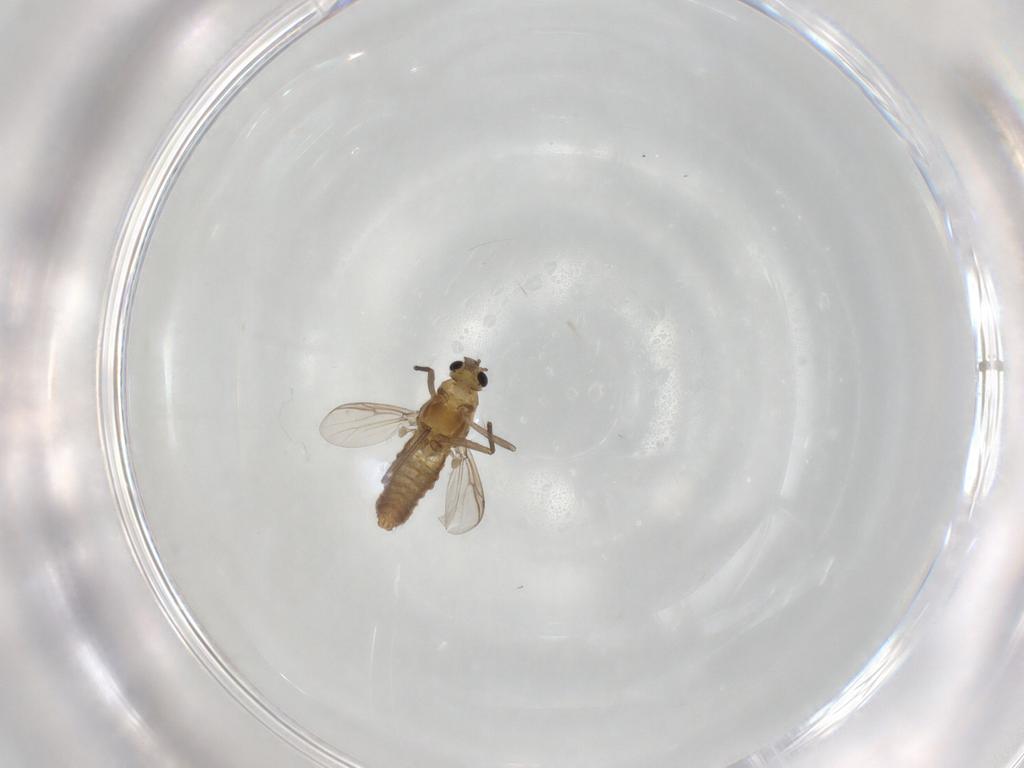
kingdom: Animalia
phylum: Arthropoda
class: Insecta
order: Diptera
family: Chironomidae
